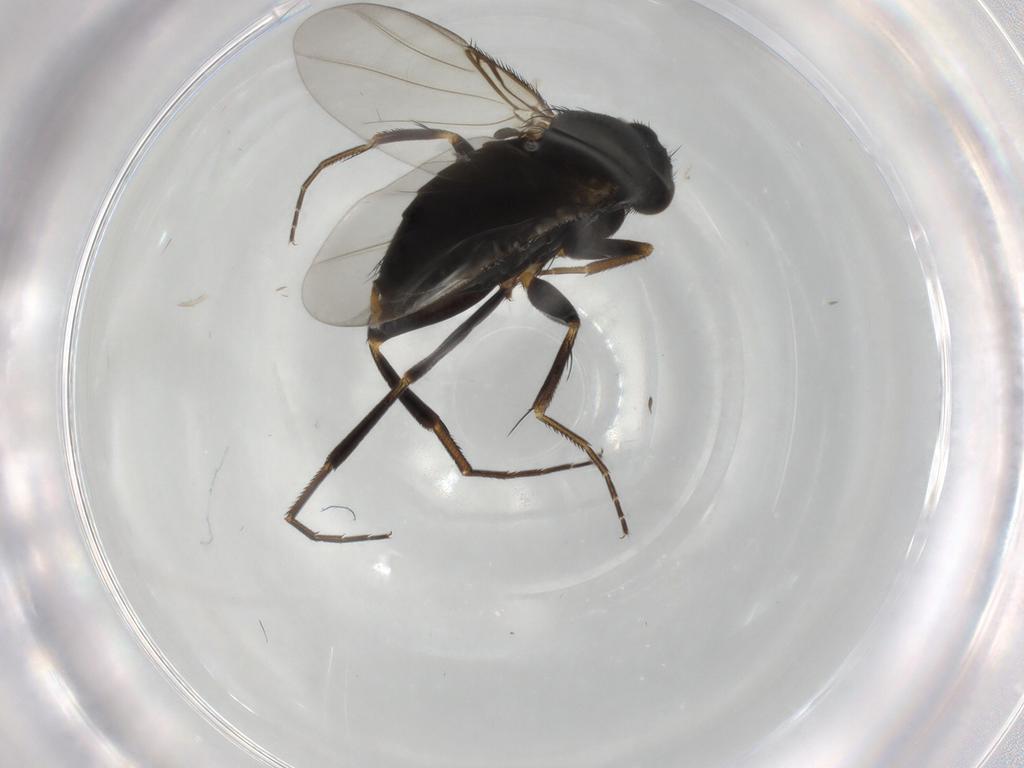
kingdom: Animalia
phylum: Arthropoda
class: Insecta
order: Diptera
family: Phoridae
